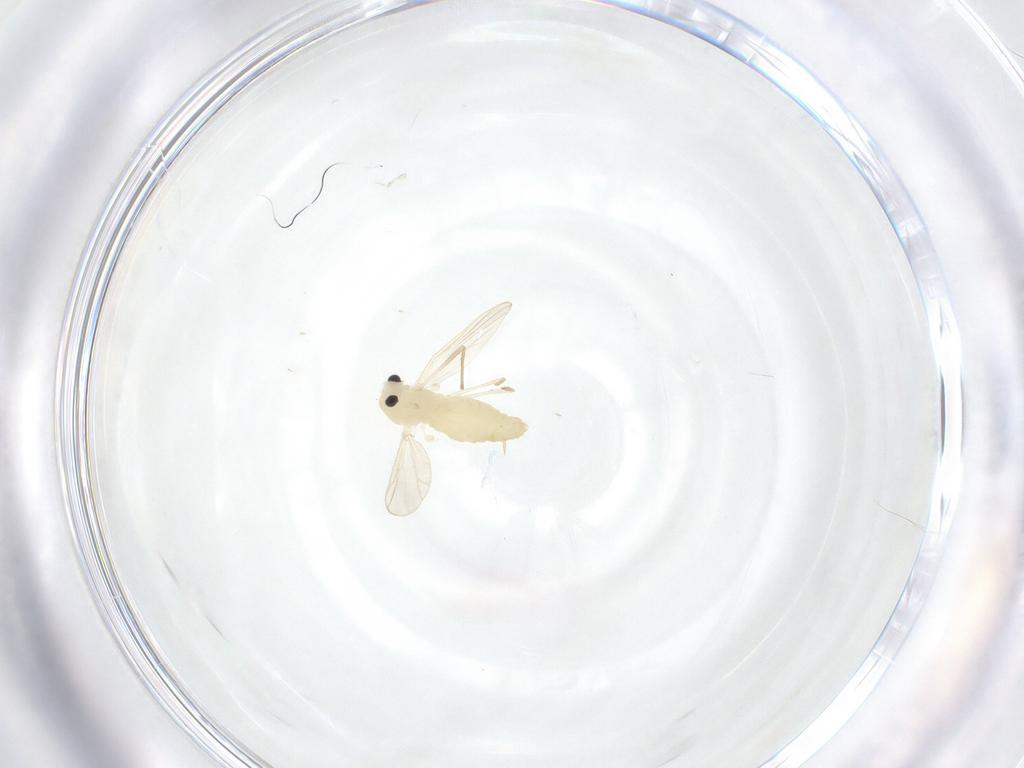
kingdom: Animalia
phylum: Arthropoda
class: Insecta
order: Diptera
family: Chironomidae
